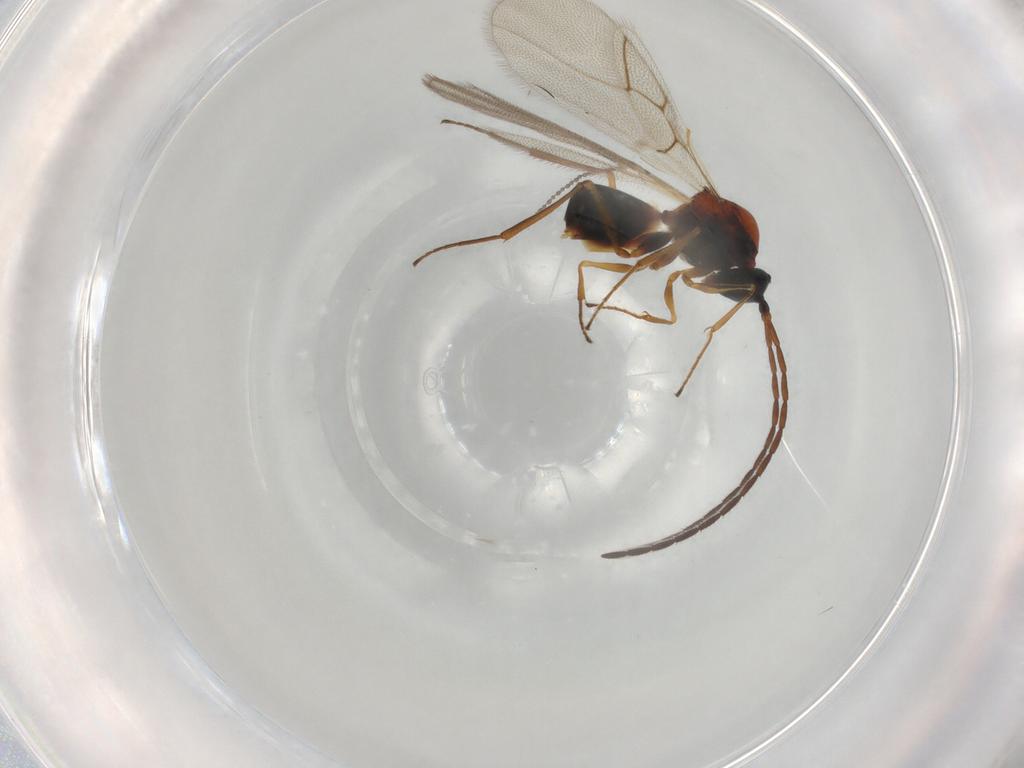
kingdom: Animalia
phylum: Arthropoda
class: Insecta
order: Hymenoptera
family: Figitidae
